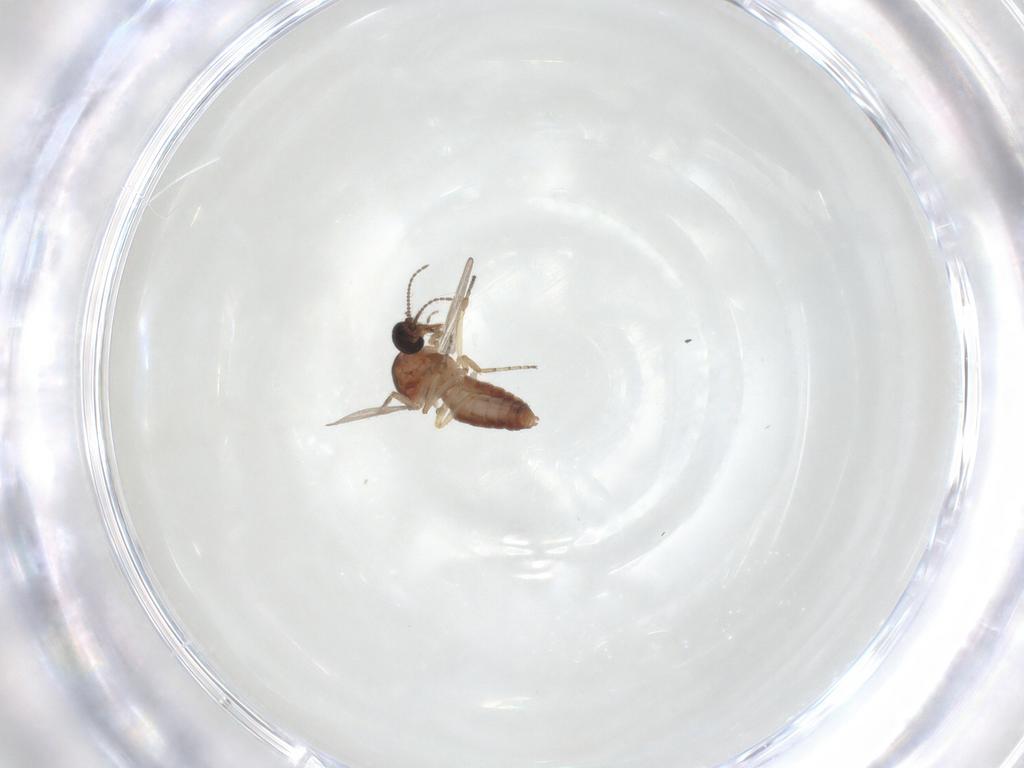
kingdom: Animalia
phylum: Arthropoda
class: Insecta
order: Diptera
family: Ceratopogonidae
